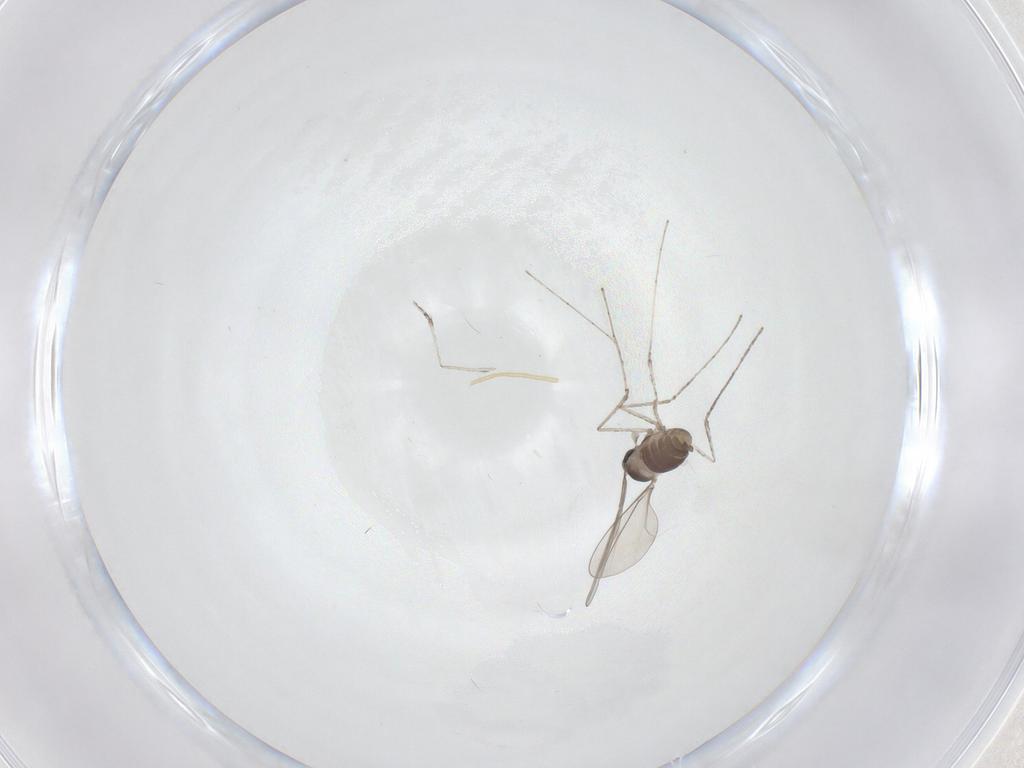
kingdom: Animalia
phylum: Arthropoda
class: Insecta
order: Diptera
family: Cecidomyiidae
